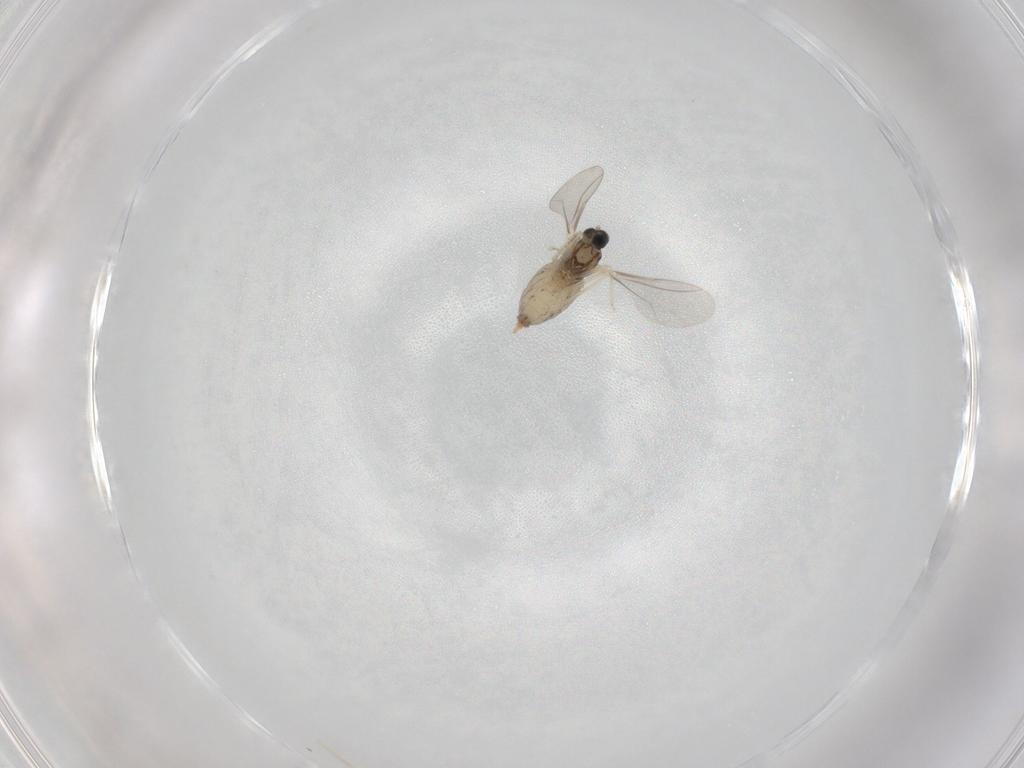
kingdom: Animalia
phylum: Arthropoda
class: Insecta
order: Diptera
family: Cecidomyiidae
